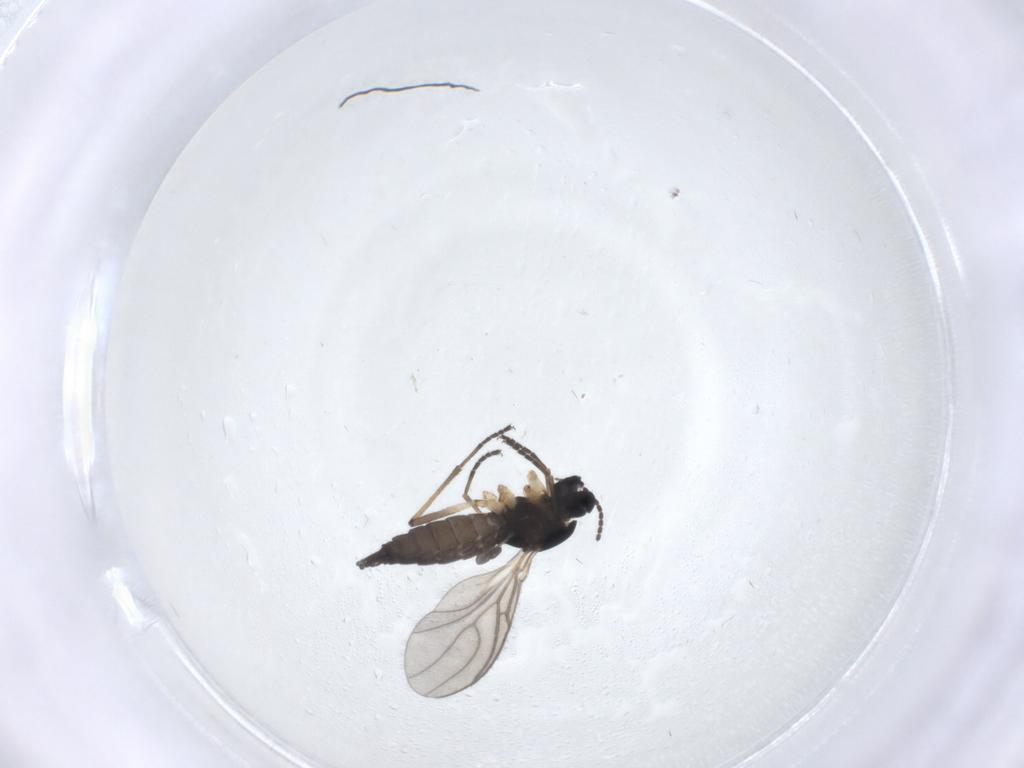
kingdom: Animalia
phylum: Arthropoda
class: Insecta
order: Diptera
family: Sciaridae
